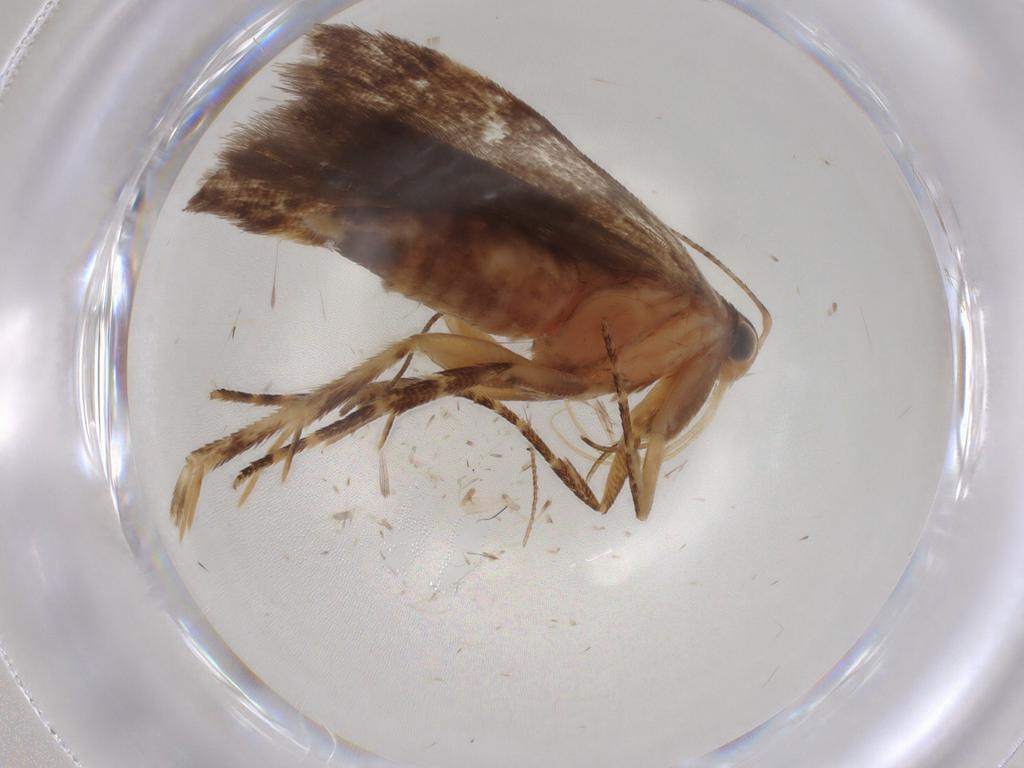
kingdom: Animalia
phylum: Arthropoda
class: Insecta
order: Lepidoptera
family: Gelechiidae
